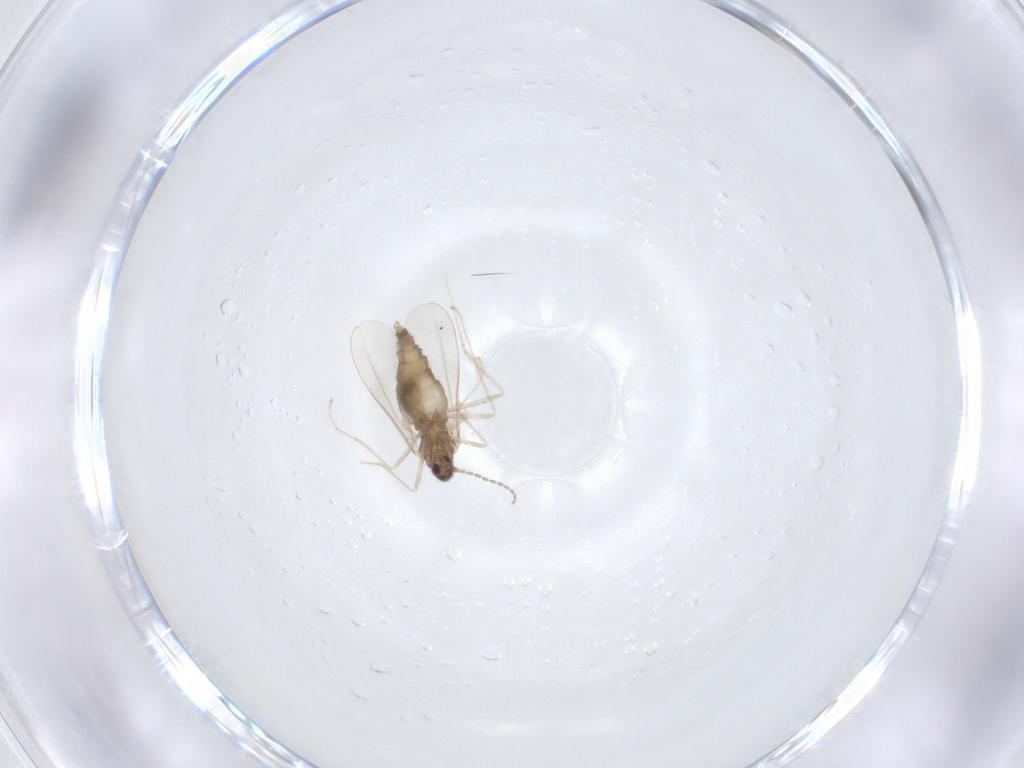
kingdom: Animalia
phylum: Arthropoda
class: Insecta
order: Diptera
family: Cecidomyiidae
